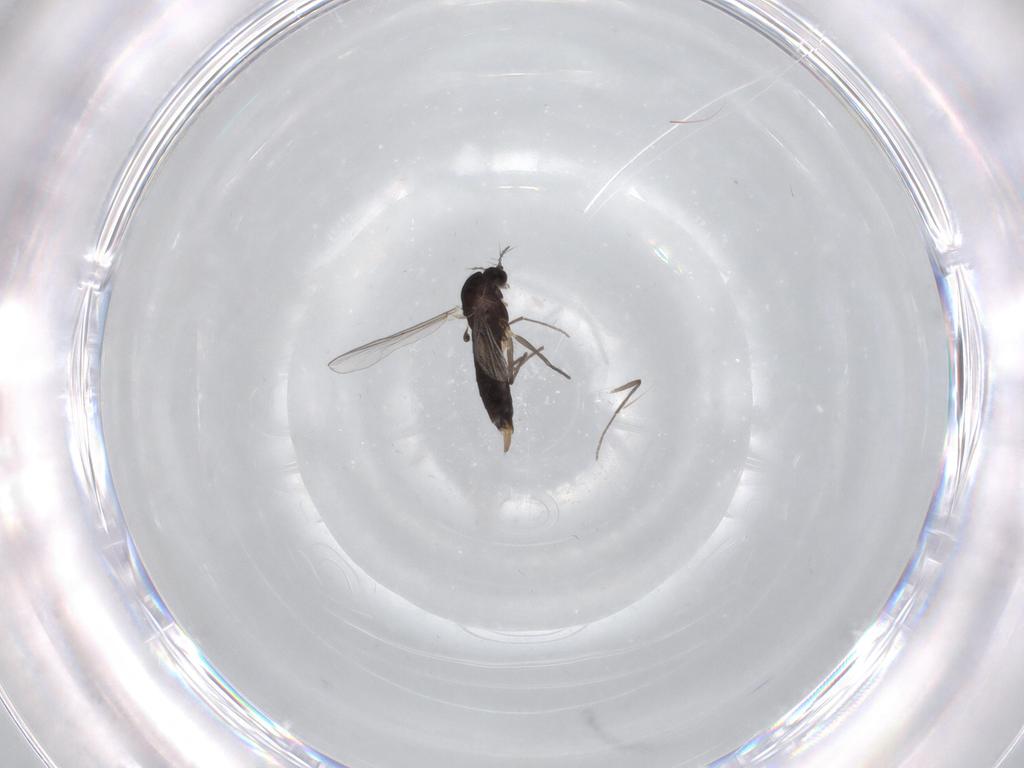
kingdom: Animalia
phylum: Arthropoda
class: Insecta
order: Diptera
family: Chironomidae
